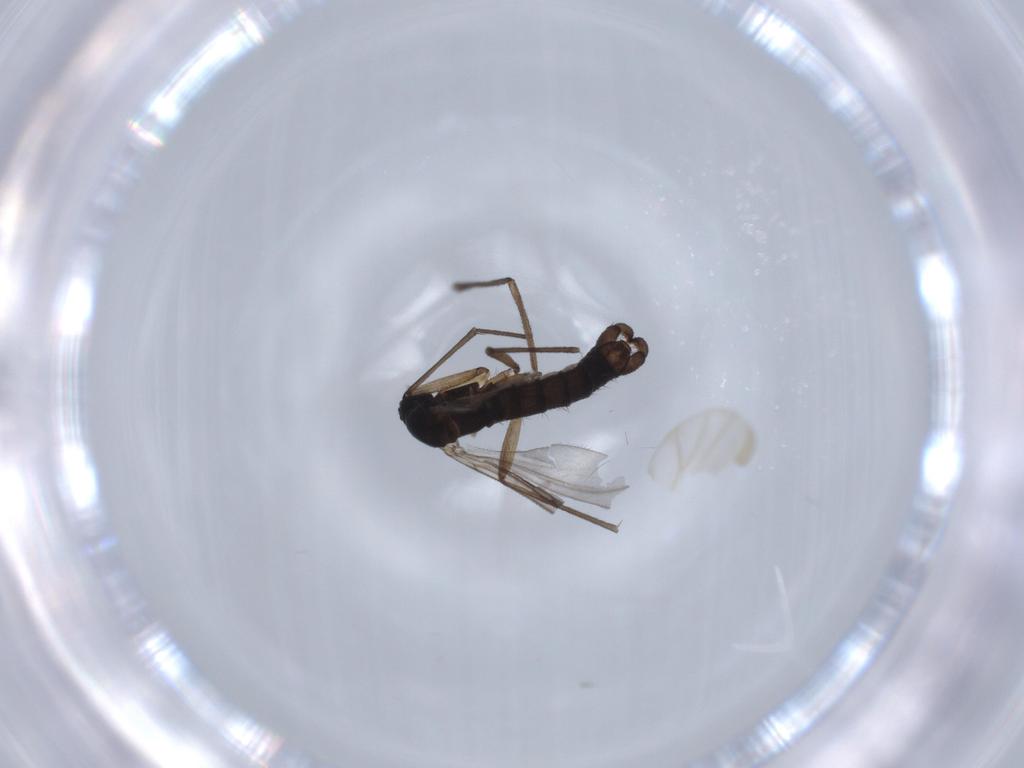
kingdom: Animalia
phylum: Arthropoda
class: Insecta
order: Diptera
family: Sciaridae
